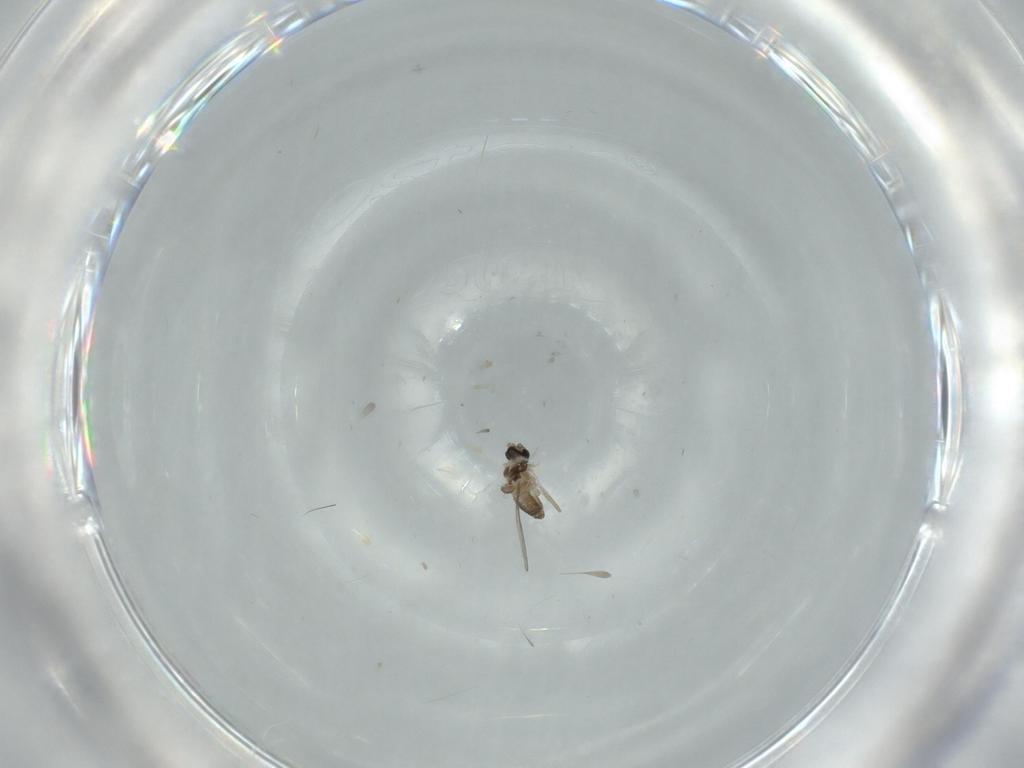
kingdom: Animalia
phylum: Arthropoda
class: Insecta
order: Diptera
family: Cecidomyiidae
